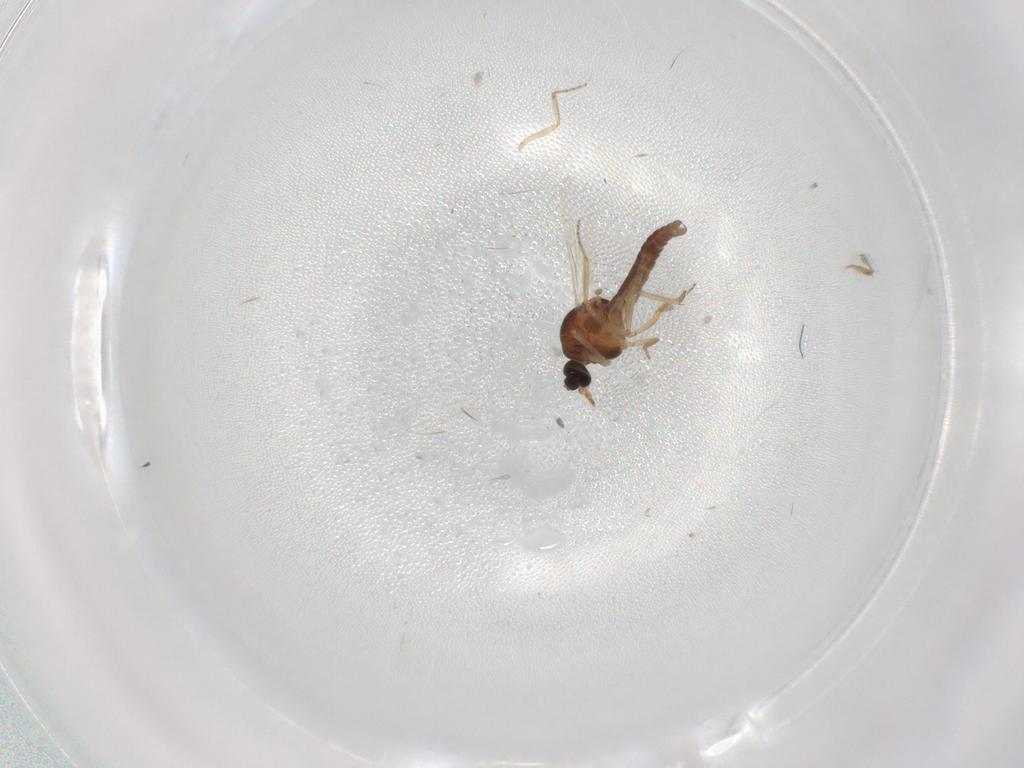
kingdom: Animalia
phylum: Arthropoda
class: Insecta
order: Diptera
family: Ceratopogonidae
